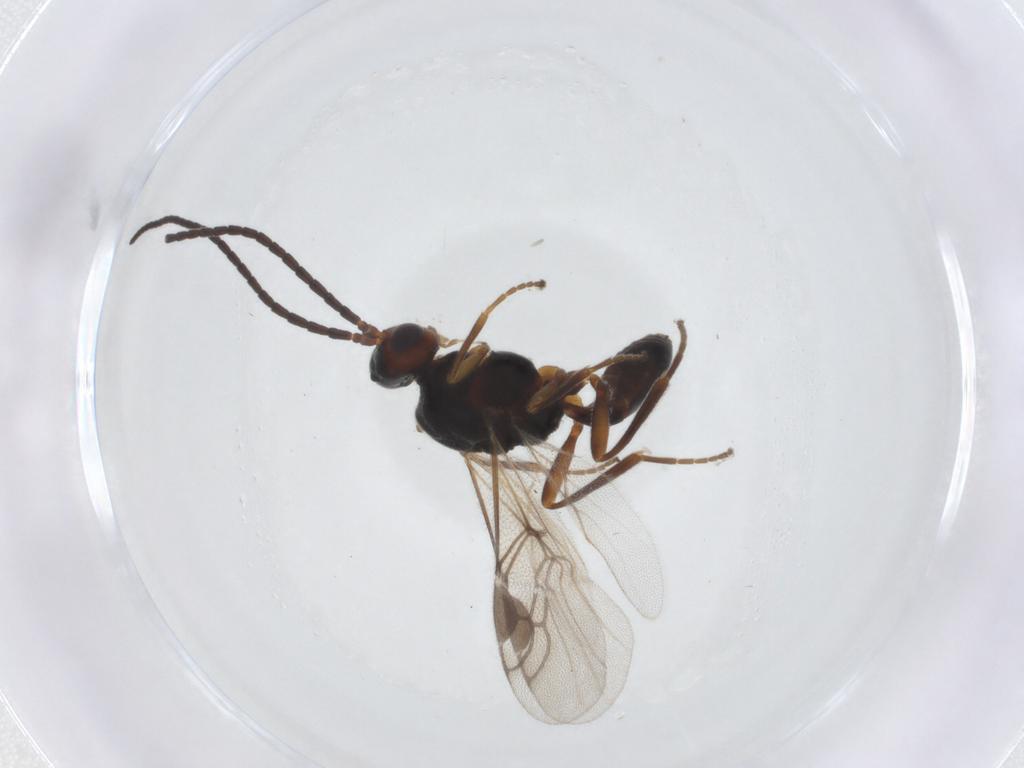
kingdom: Animalia
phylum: Arthropoda
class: Insecta
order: Hymenoptera
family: Braconidae
